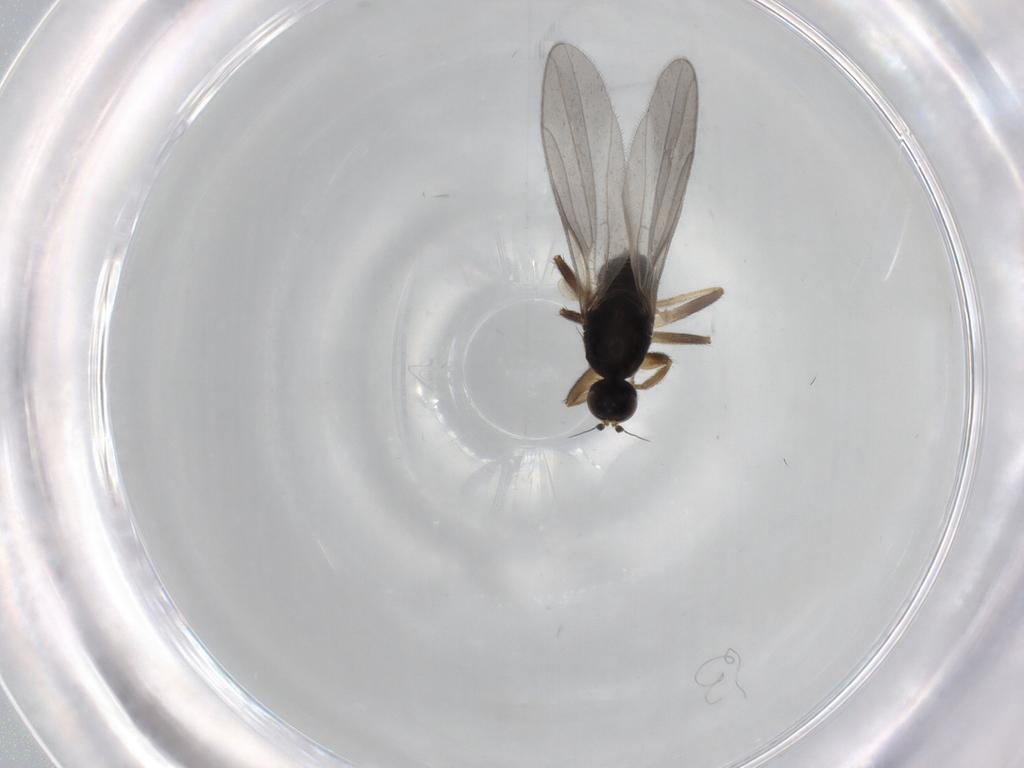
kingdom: Animalia
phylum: Arthropoda
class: Insecta
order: Diptera
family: Hybotidae
